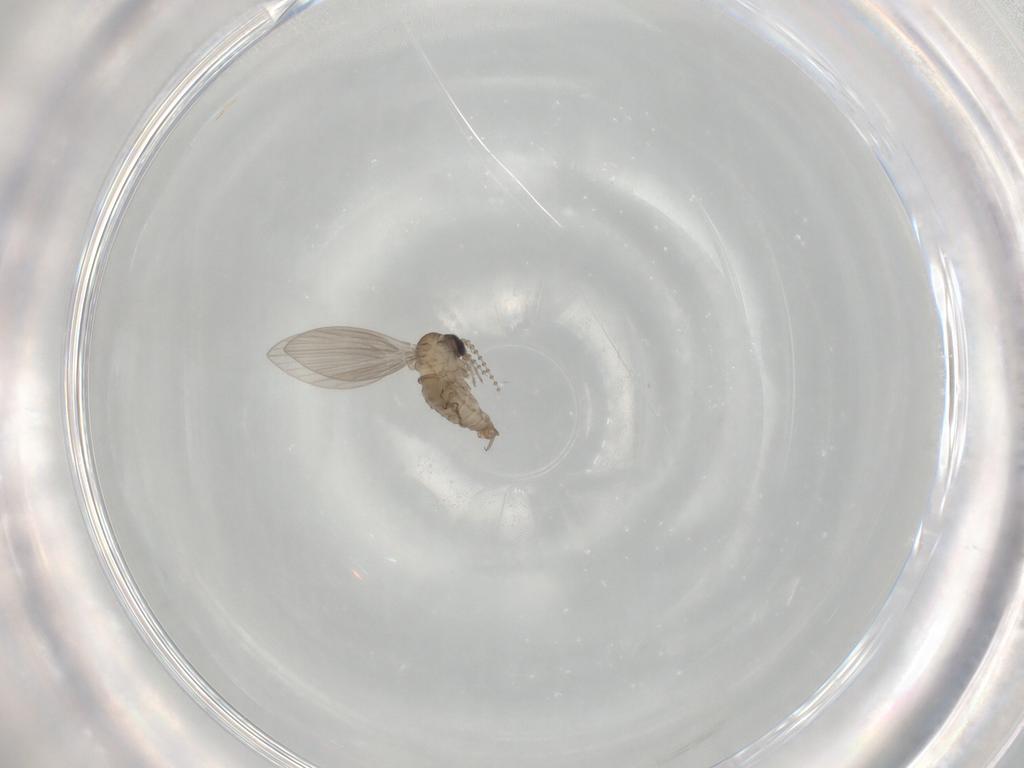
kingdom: Animalia
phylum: Arthropoda
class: Insecta
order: Diptera
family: Psychodidae
